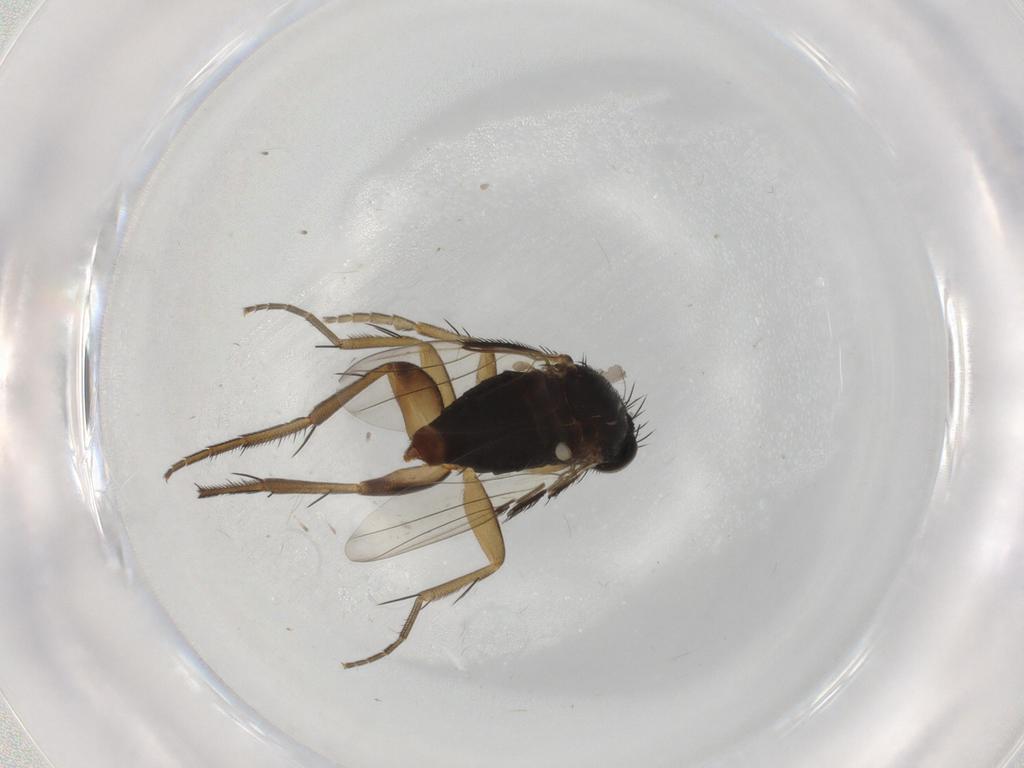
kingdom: Animalia
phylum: Arthropoda
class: Insecta
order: Diptera
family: Phoridae
